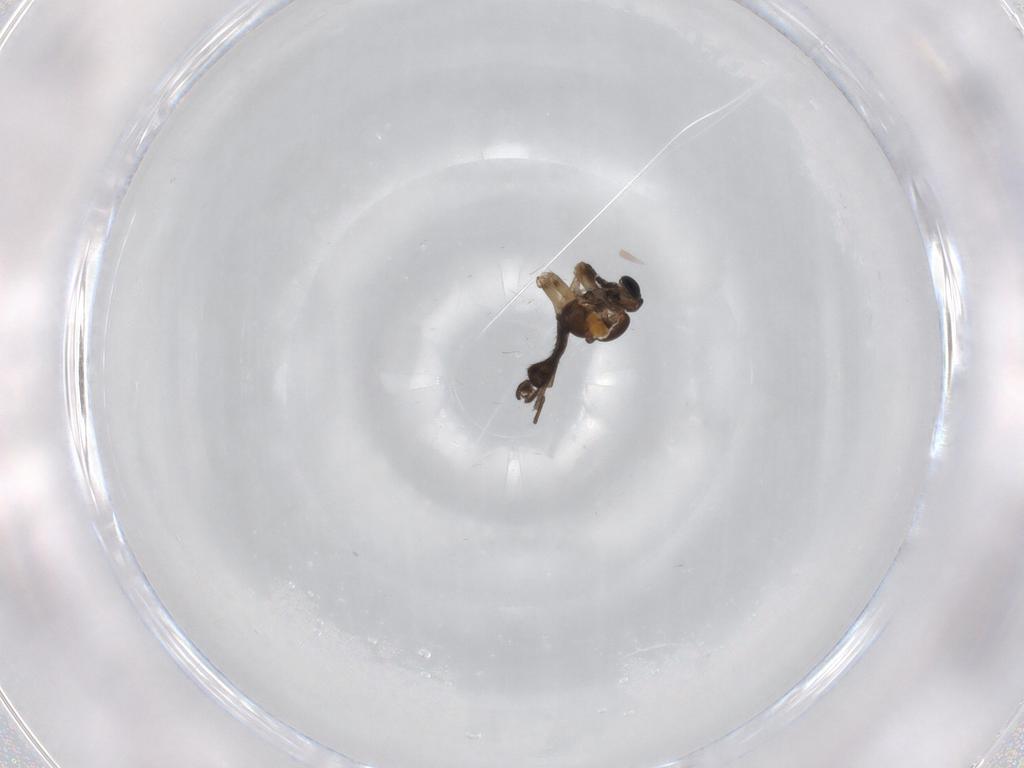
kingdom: Animalia
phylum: Arthropoda
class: Insecta
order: Diptera
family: Sciaridae
